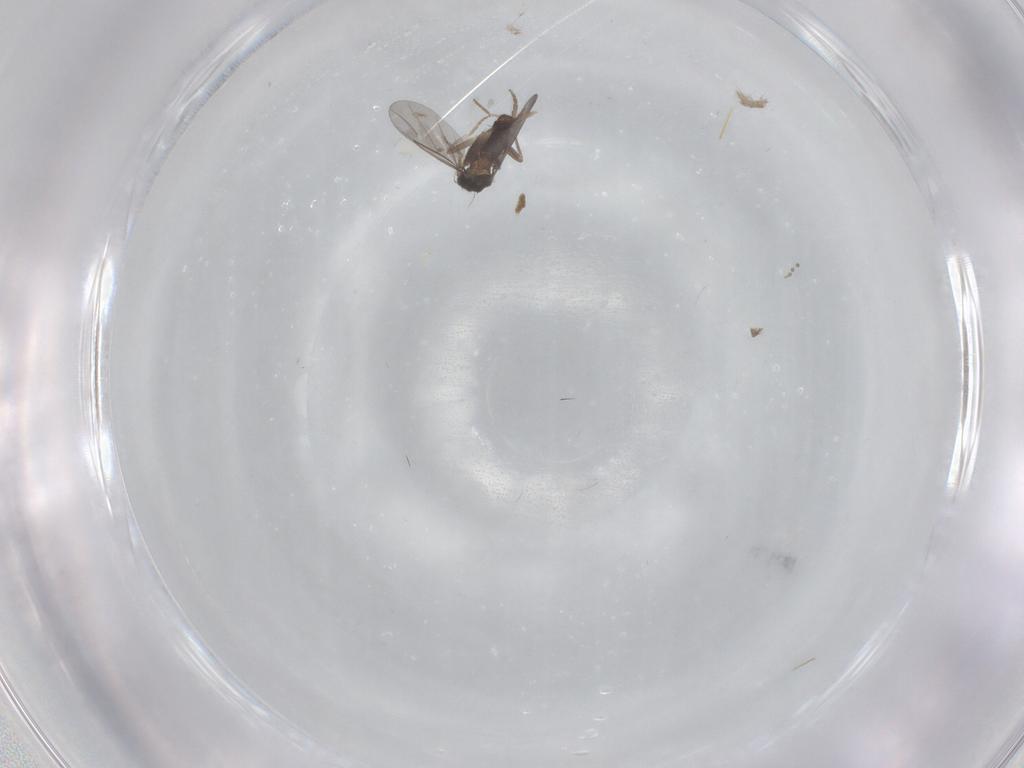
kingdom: Animalia
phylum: Arthropoda
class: Insecta
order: Diptera
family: Cecidomyiidae
